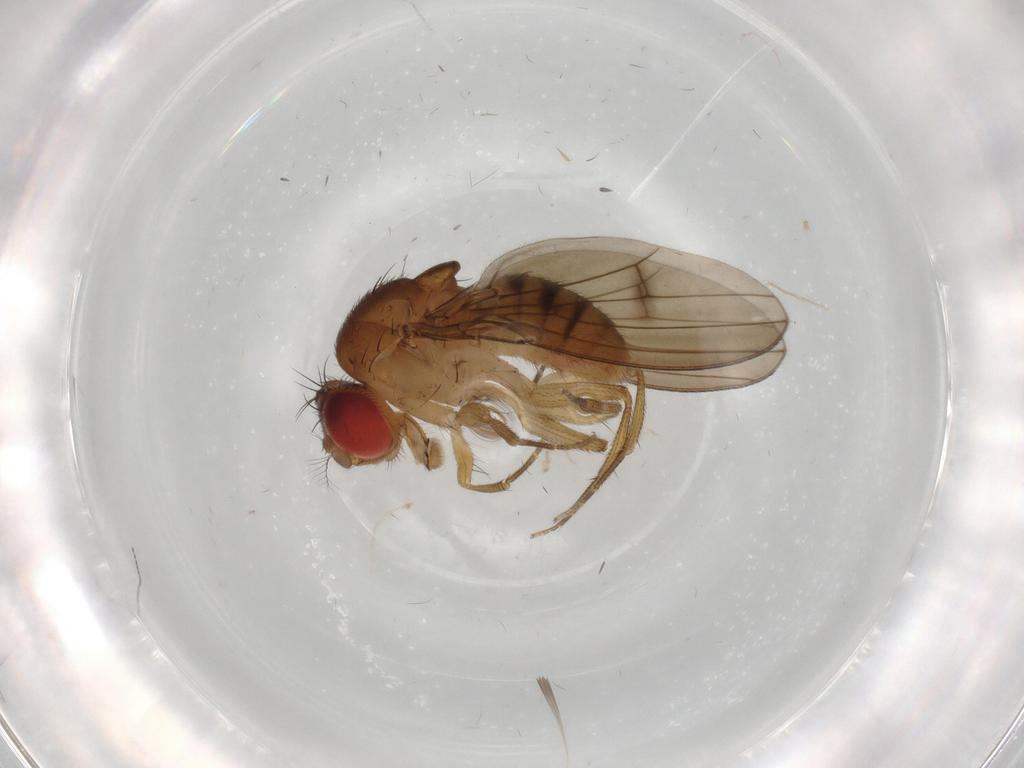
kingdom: Animalia
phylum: Arthropoda
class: Insecta
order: Diptera
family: Drosophilidae
